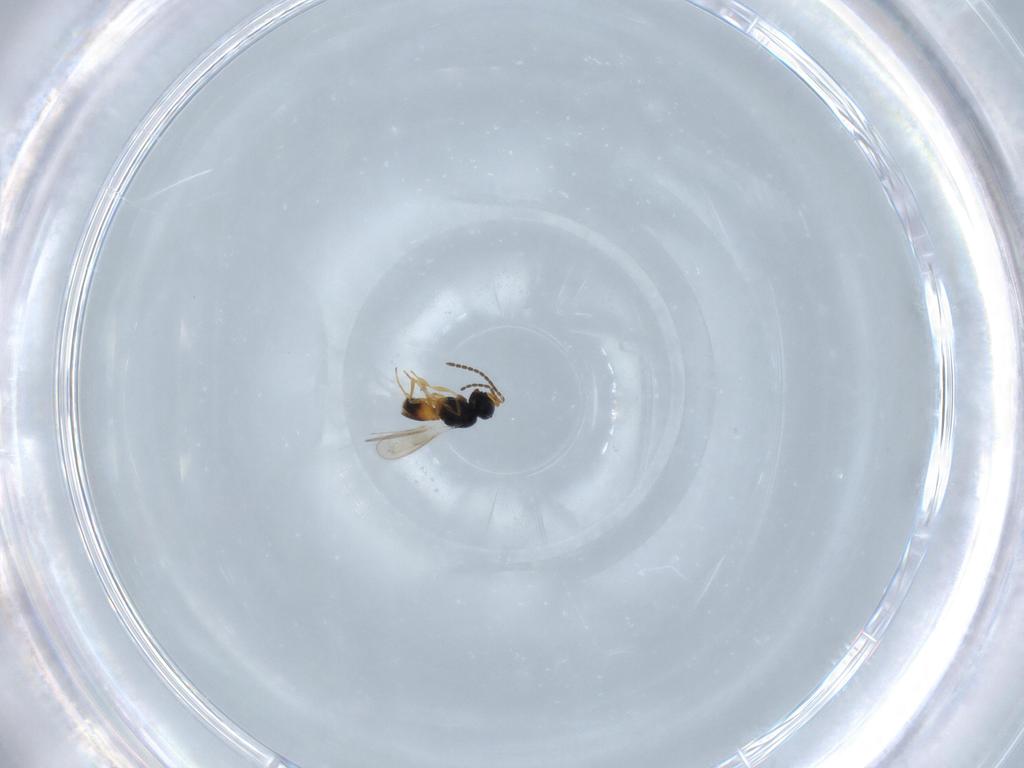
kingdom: Animalia
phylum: Arthropoda
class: Insecta
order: Hymenoptera
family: Scelionidae
